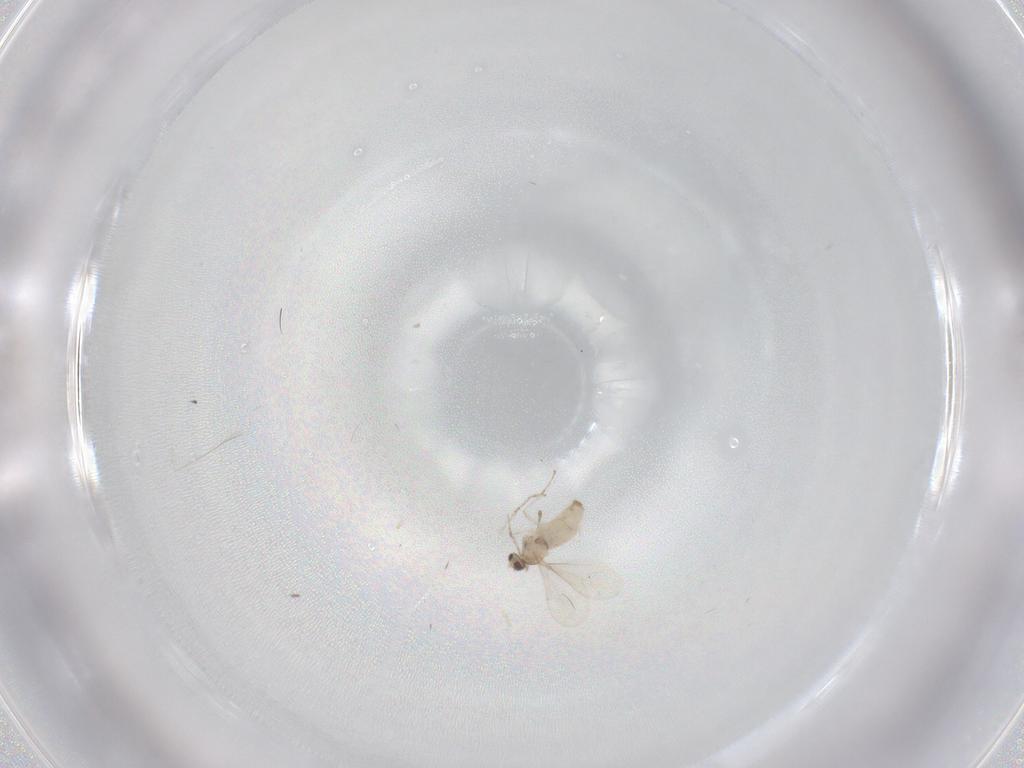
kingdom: Animalia
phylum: Arthropoda
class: Insecta
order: Diptera
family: Cecidomyiidae
